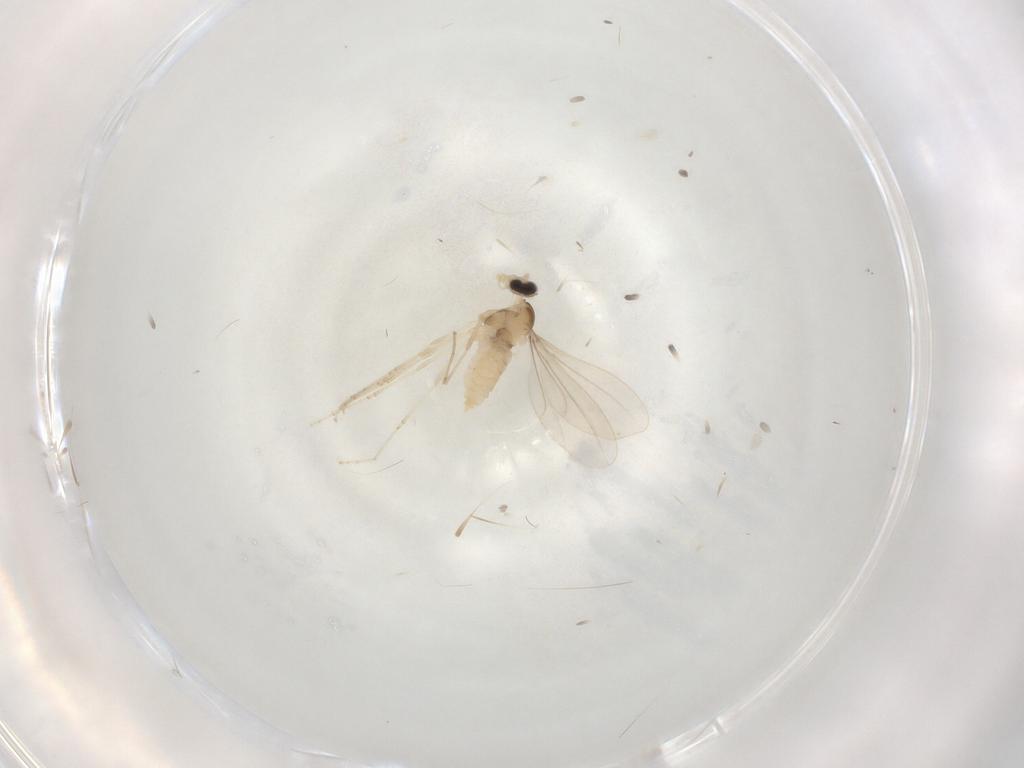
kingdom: Animalia
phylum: Arthropoda
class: Insecta
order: Diptera
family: Cecidomyiidae
